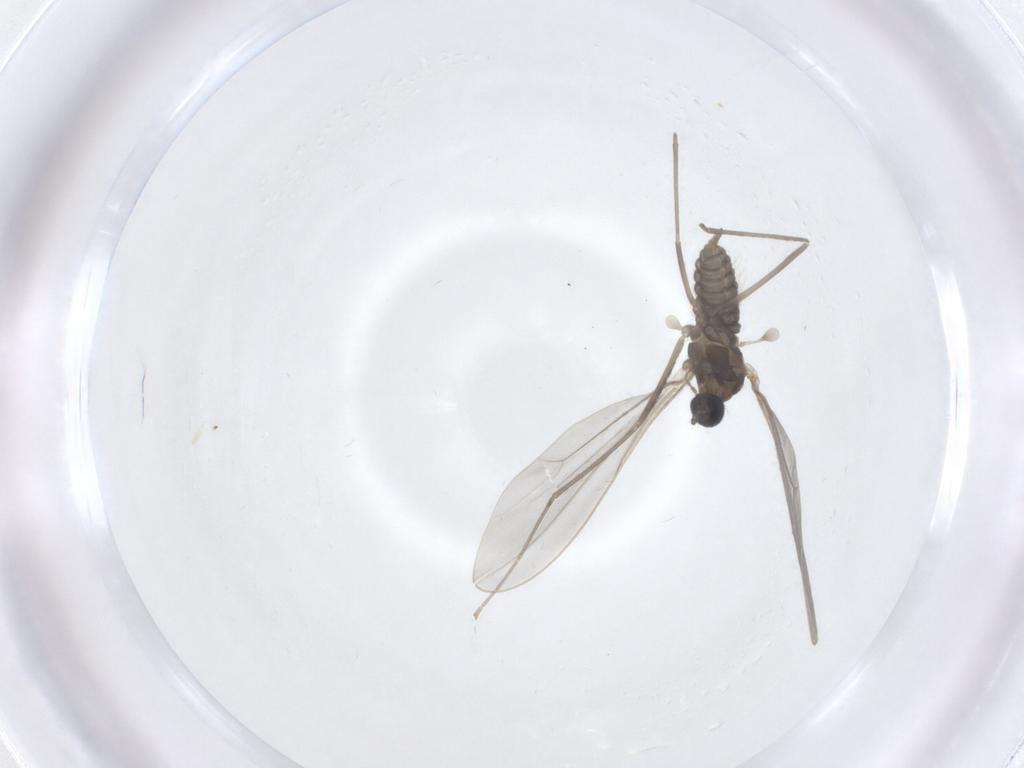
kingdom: Animalia
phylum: Arthropoda
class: Insecta
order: Diptera
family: Cecidomyiidae
